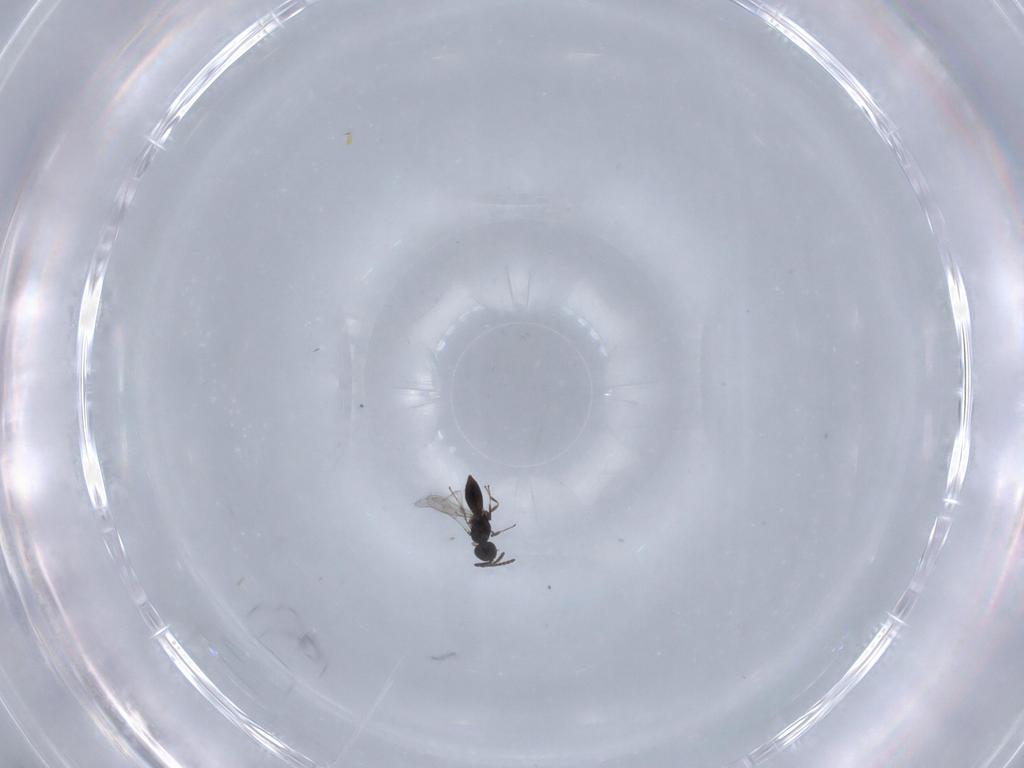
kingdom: Animalia
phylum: Arthropoda
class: Insecta
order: Hymenoptera
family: Scelionidae
